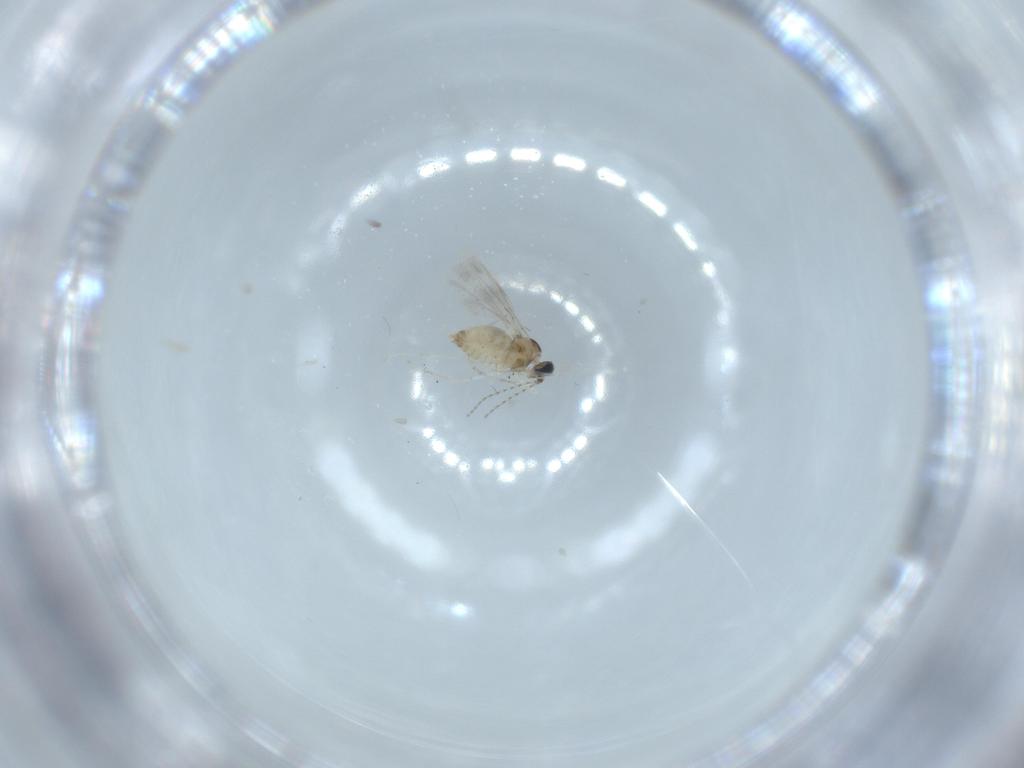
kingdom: Animalia
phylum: Arthropoda
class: Insecta
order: Diptera
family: Cecidomyiidae
